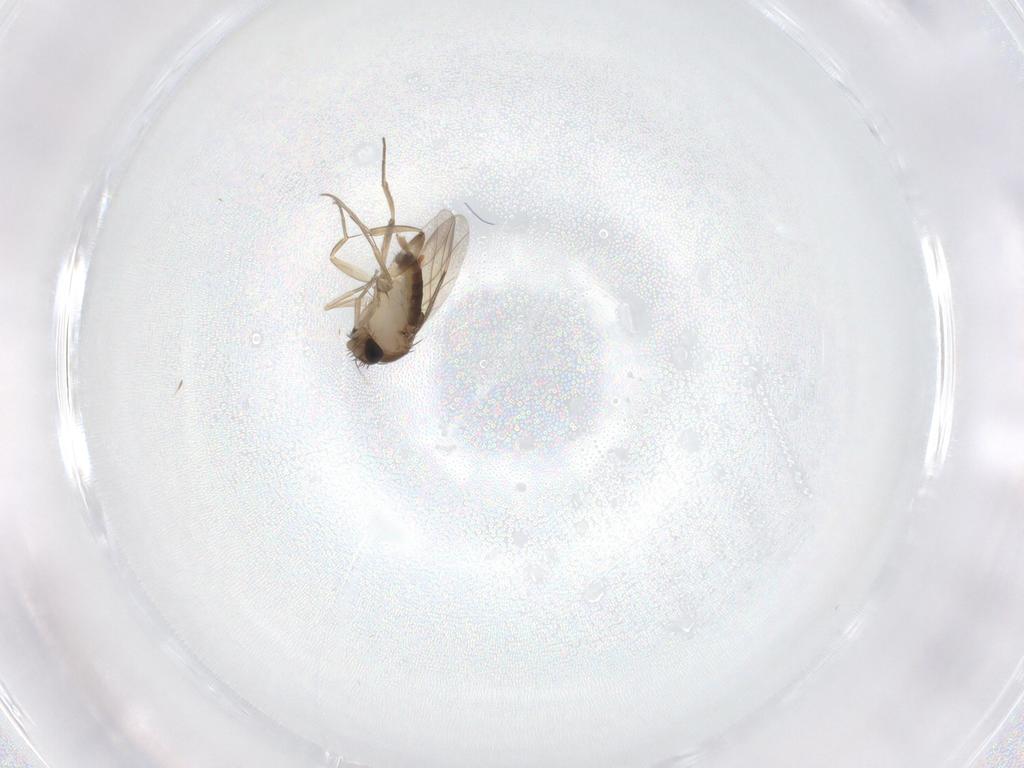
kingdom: Animalia
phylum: Arthropoda
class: Insecta
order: Diptera
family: Phoridae
